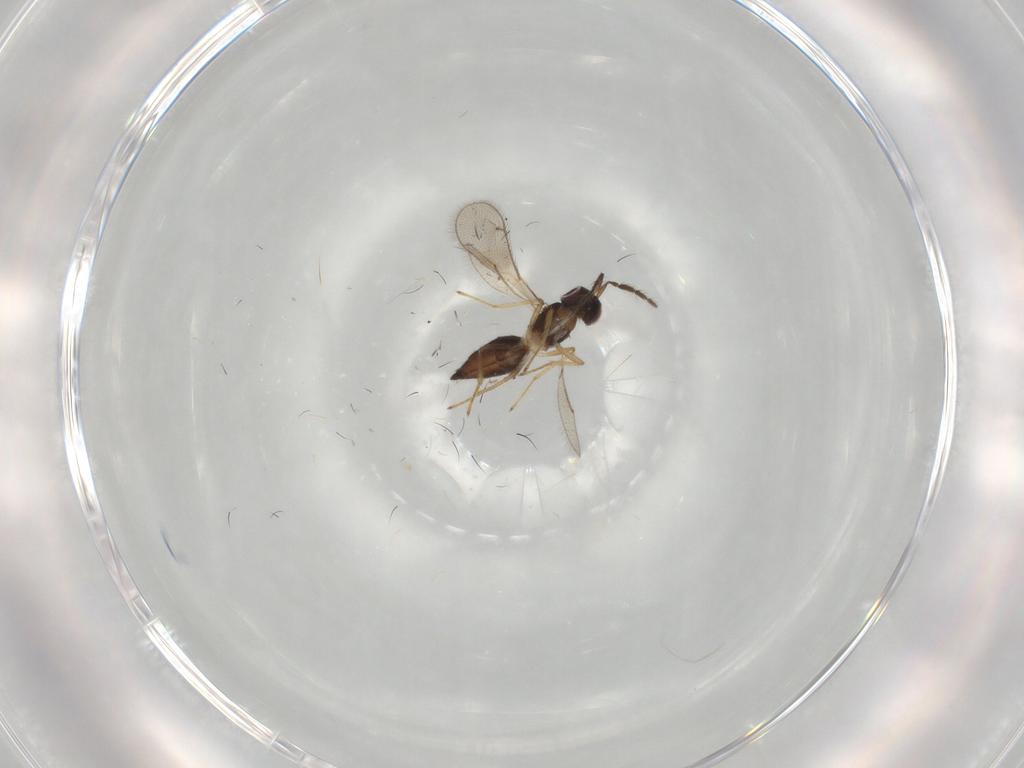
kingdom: Animalia
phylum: Arthropoda
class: Insecta
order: Hymenoptera
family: Eulophidae
